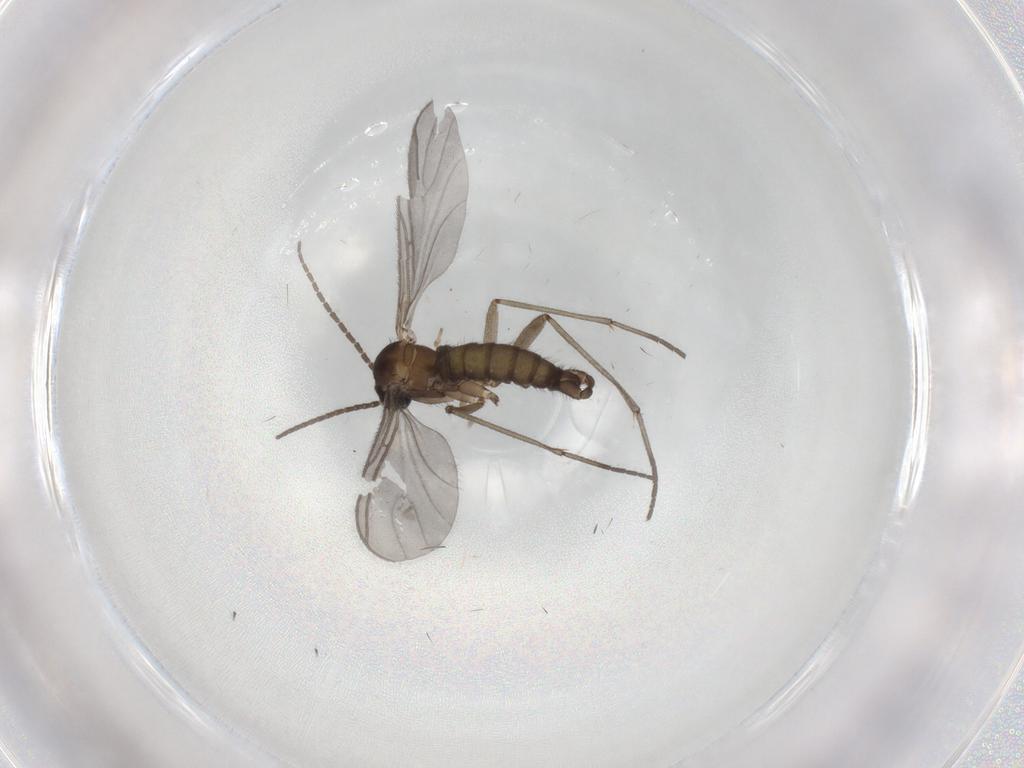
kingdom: Animalia
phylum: Arthropoda
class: Insecta
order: Diptera
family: Sciaridae
